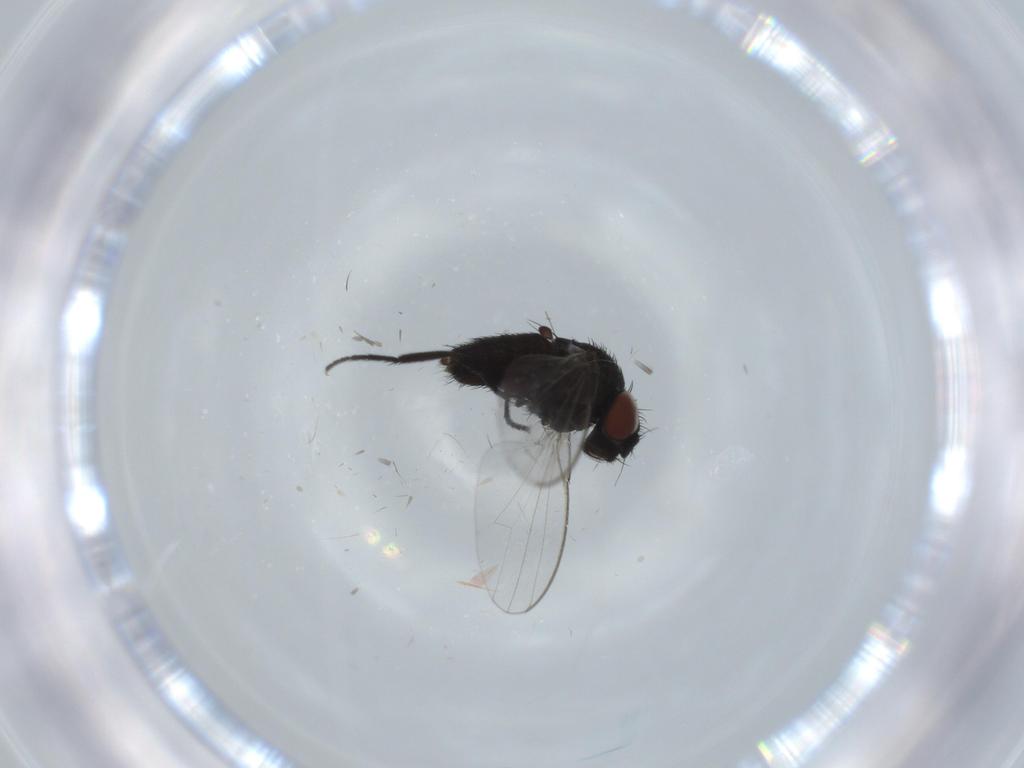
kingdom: Animalia
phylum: Arthropoda
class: Insecta
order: Diptera
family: Milichiidae
